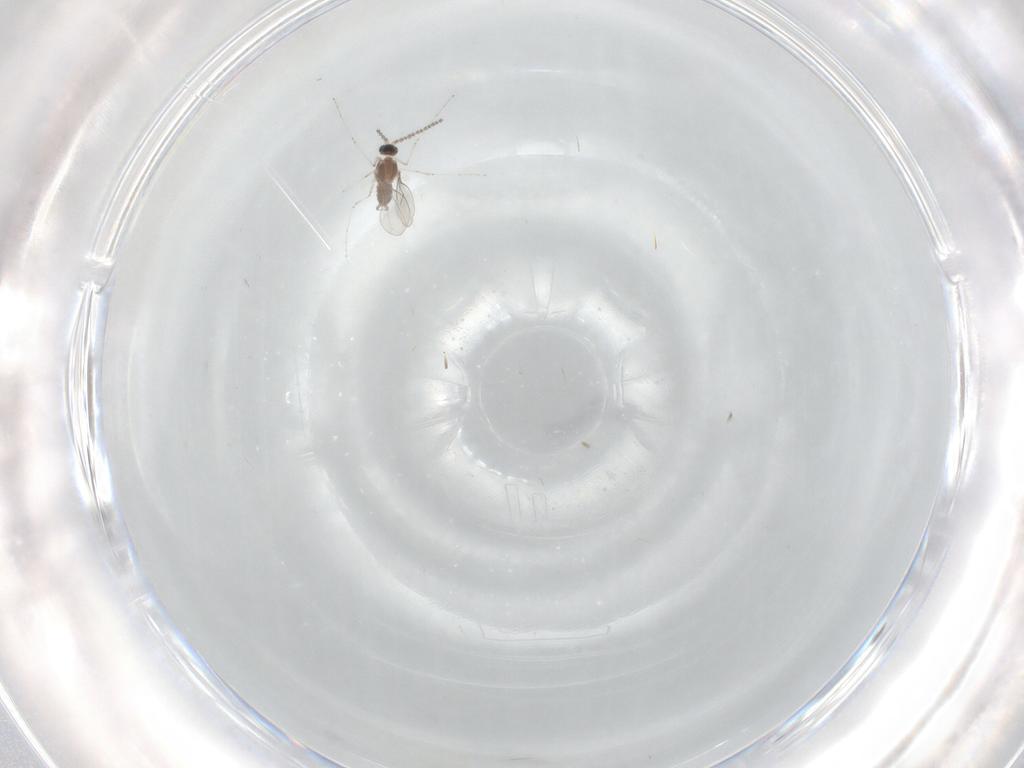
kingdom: Animalia
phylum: Arthropoda
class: Insecta
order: Diptera
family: Cecidomyiidae
